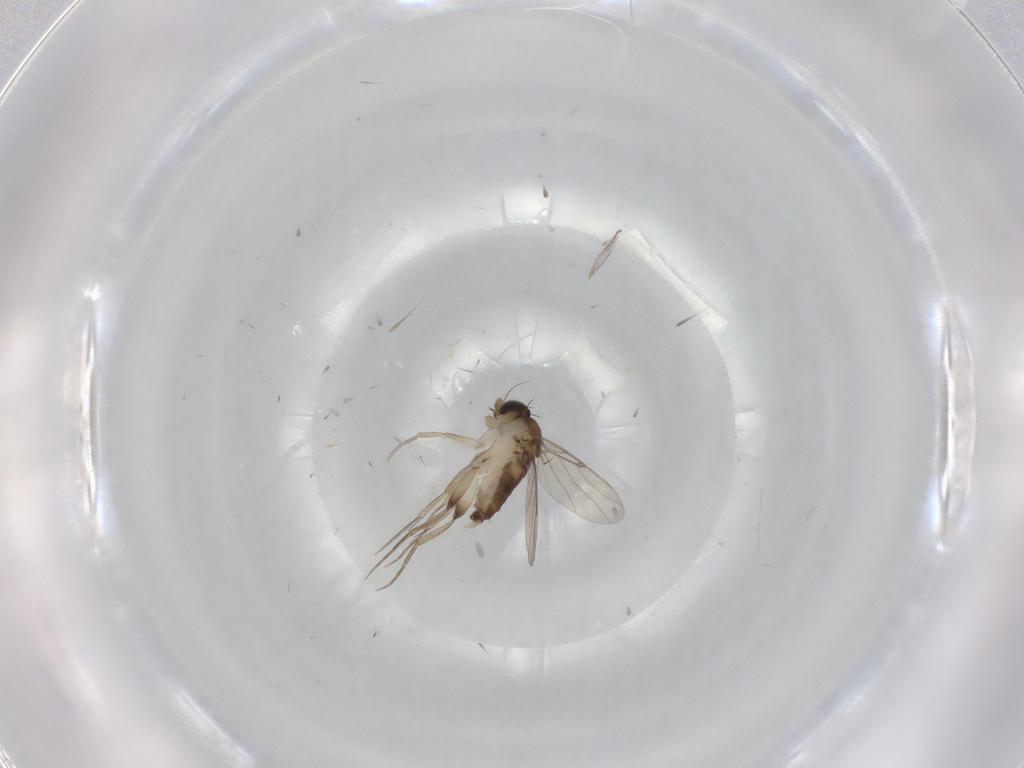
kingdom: Animalia
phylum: Arthropoda
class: Insecta
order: Diptera
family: Phoridae
